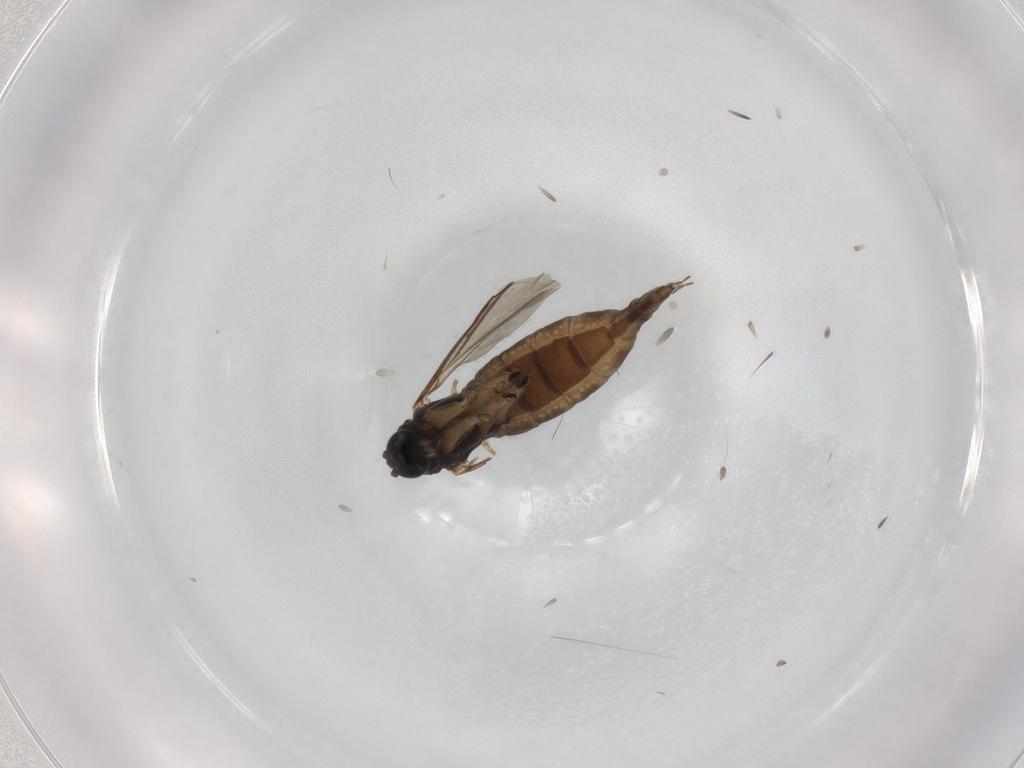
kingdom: Animalia
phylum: Arthropoda
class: Insecta
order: Diptera
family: Sciaridae
